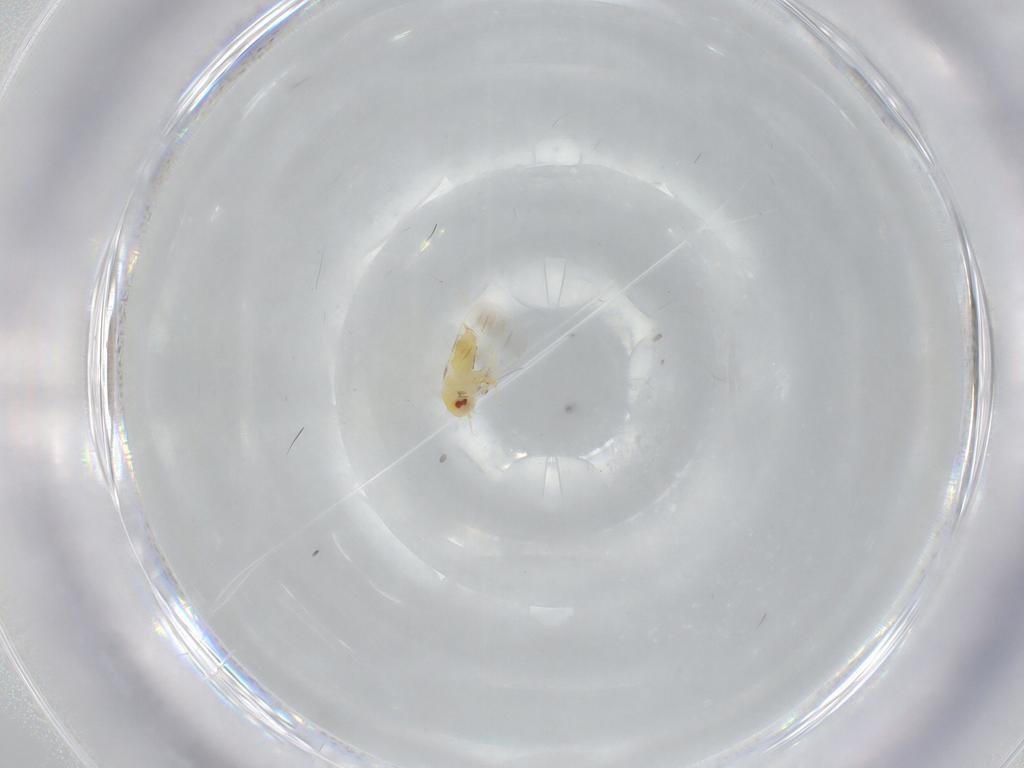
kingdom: Animalia
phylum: Arthropoda
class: Insecta
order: Hemiptera
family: Aleyrodidae
